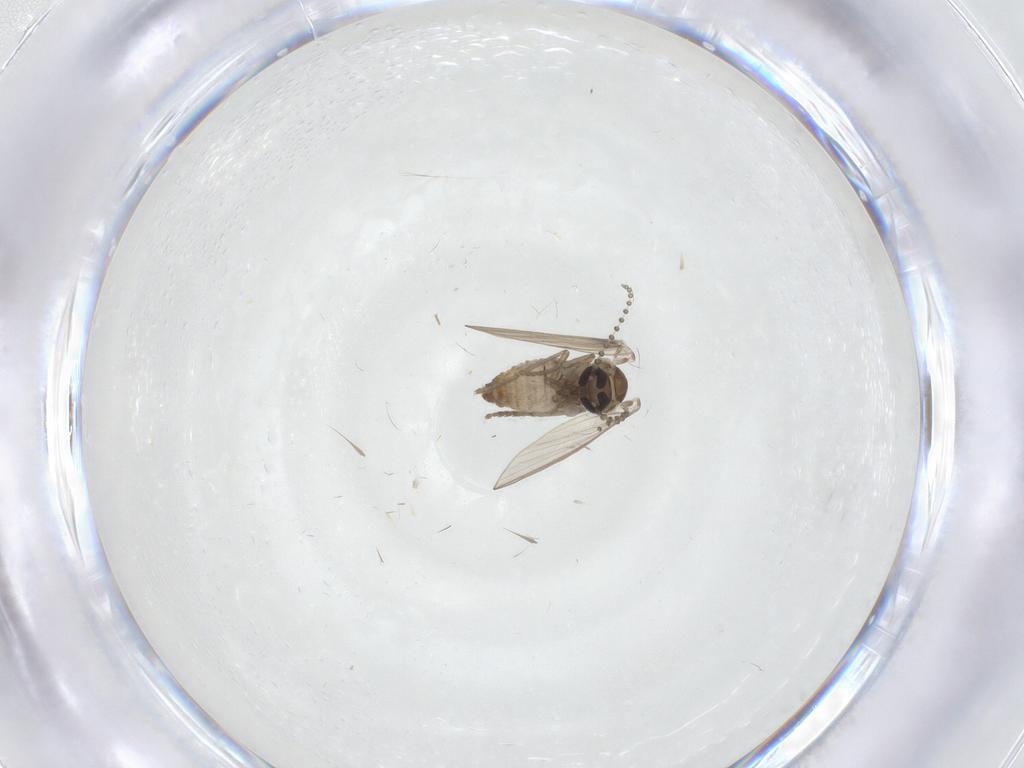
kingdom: Animalia
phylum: Arthropoda
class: Insecta
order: Diptera
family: Psychodidae
